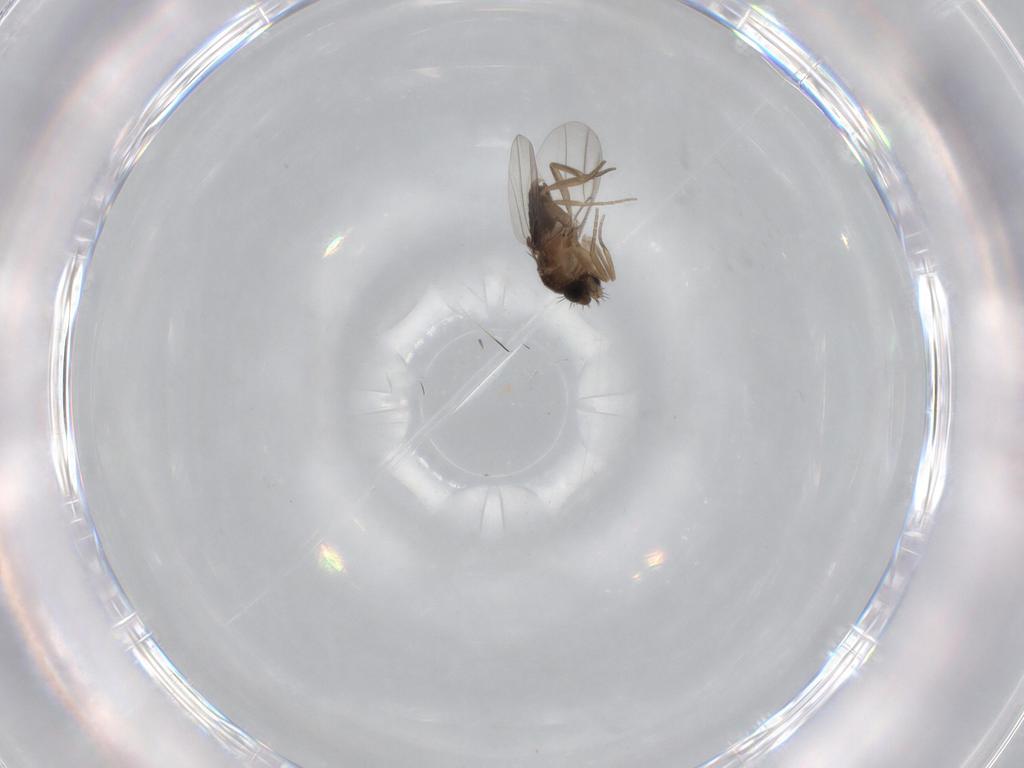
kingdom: Animalia
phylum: Arthropoda
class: Insecta
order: Diptera
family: Phoridae
